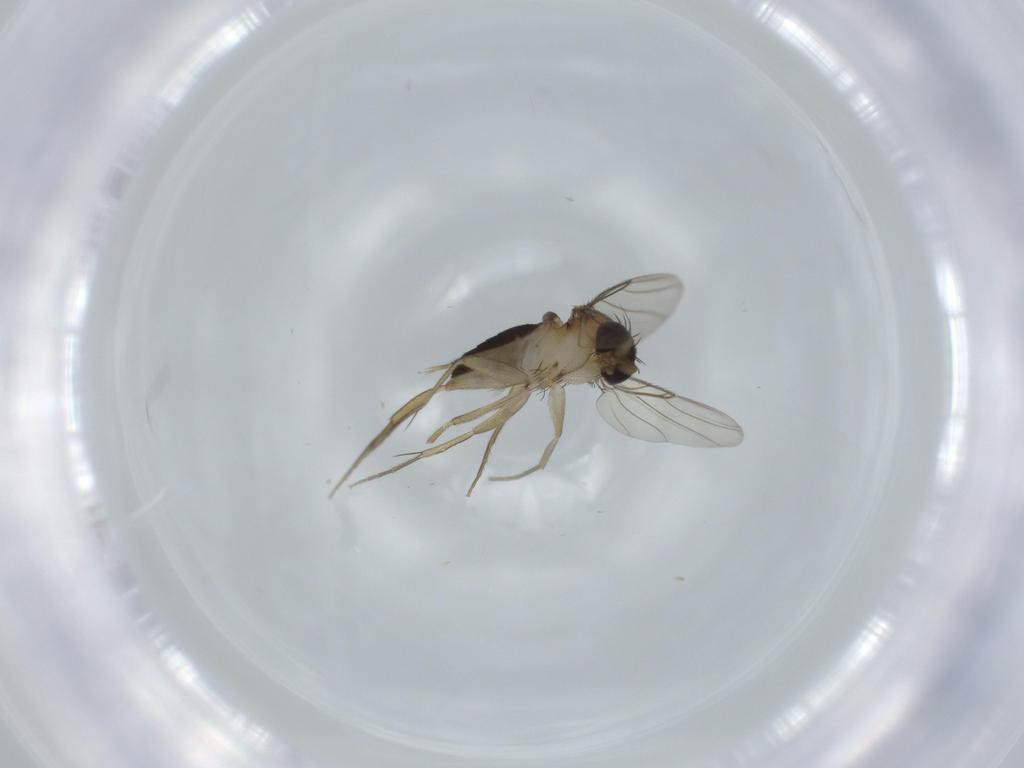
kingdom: Animalia
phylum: Arthropoda
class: Insecta
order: Diptera
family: Phoridae
